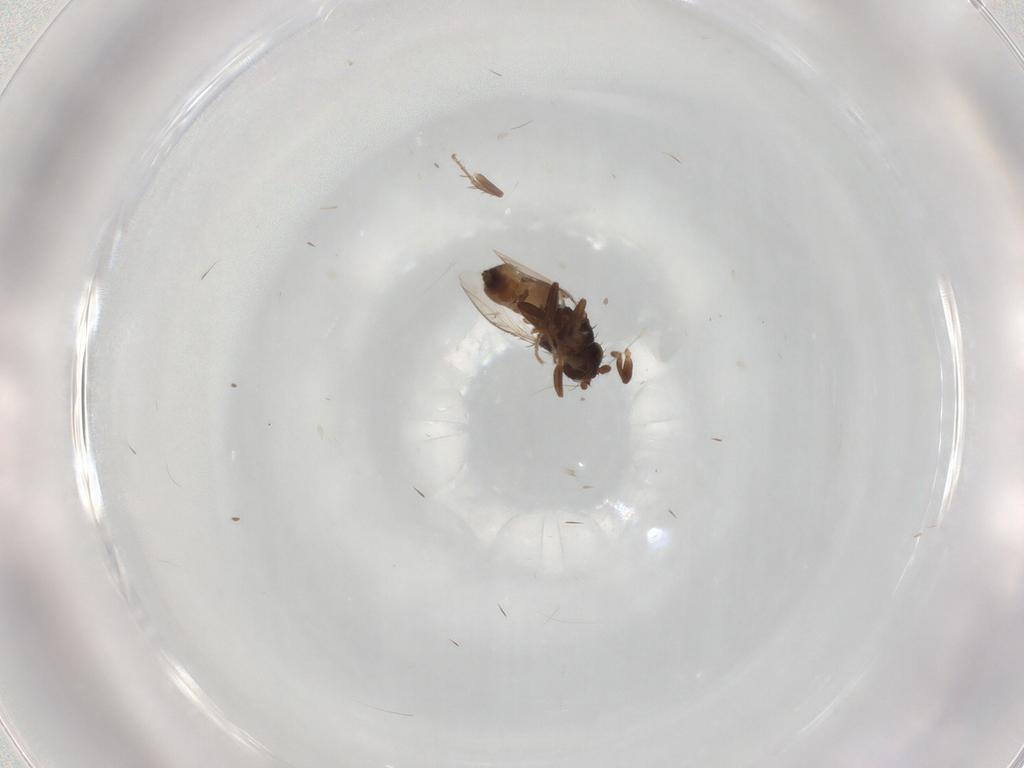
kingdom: Animalia
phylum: Arthropoda
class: Insecta
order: Diptera
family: Sphaeroceridae
